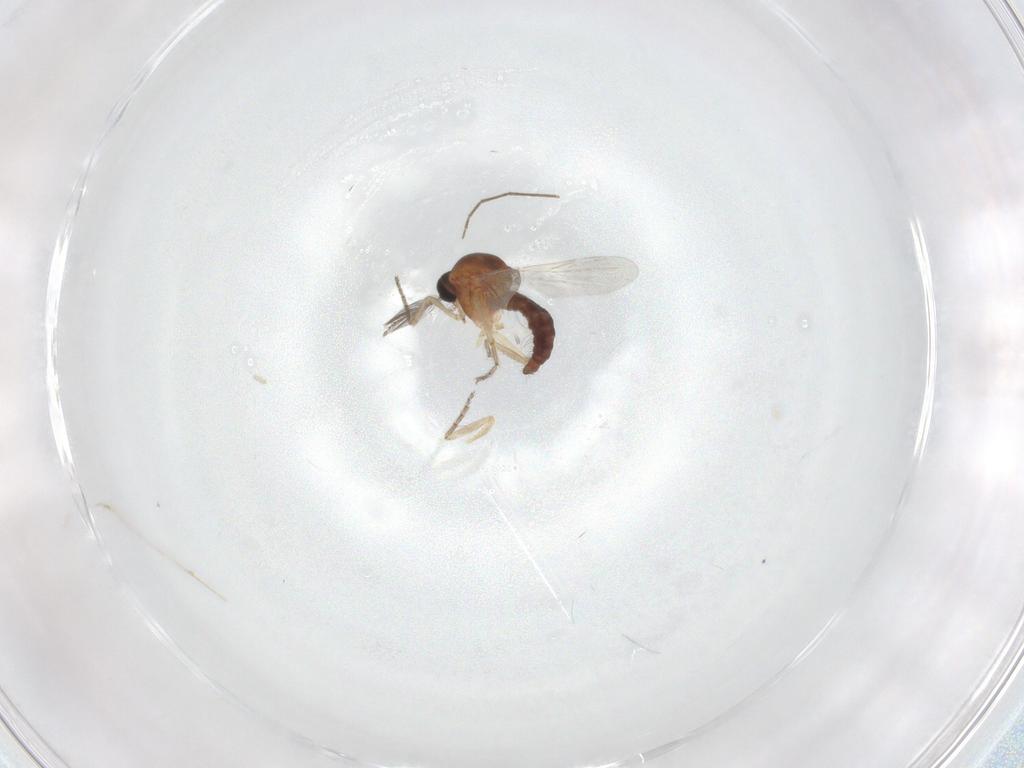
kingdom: Animalia
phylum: Arthropoda
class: Insecta
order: Diptera
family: Ceratopogonidae
